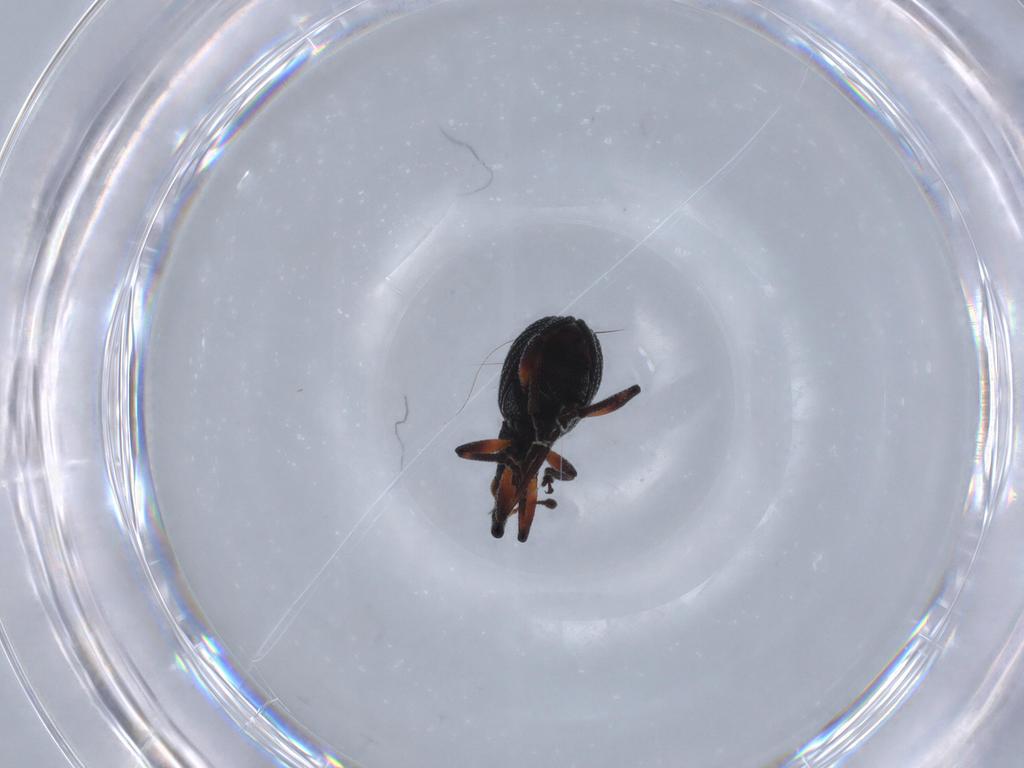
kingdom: Animalia
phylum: Arthropoda
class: Insecta
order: Coleoptera
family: Brentidae
